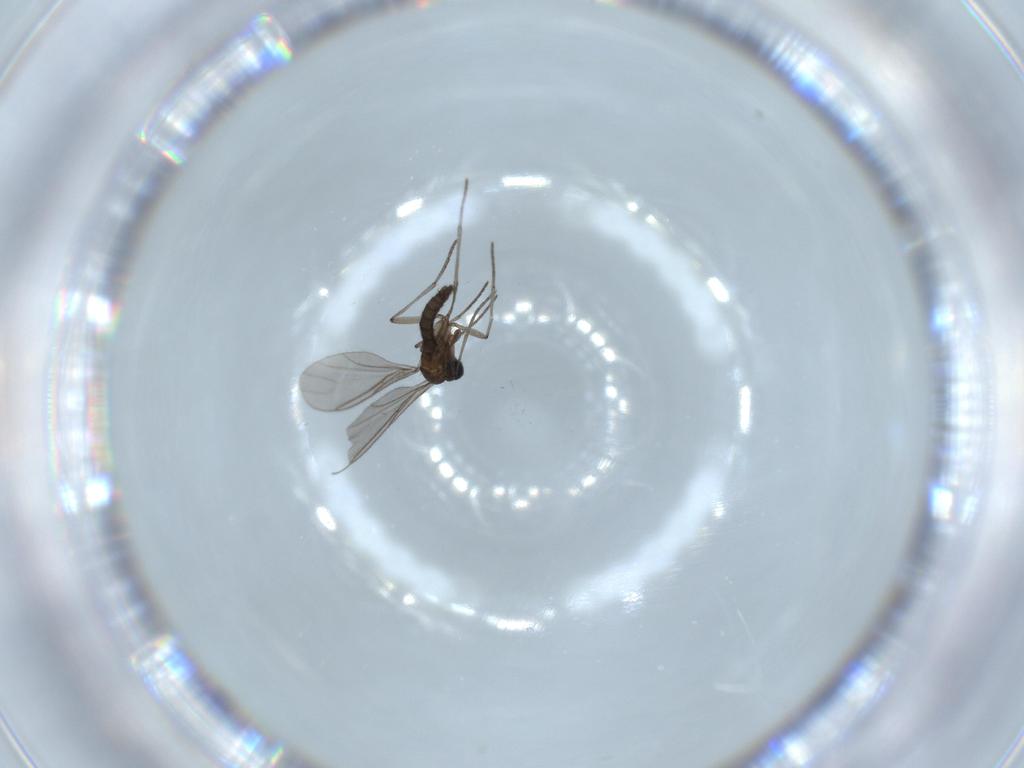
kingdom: Animalia
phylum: Arthropoda
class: Insecta
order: Diptera
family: Sciaridae
